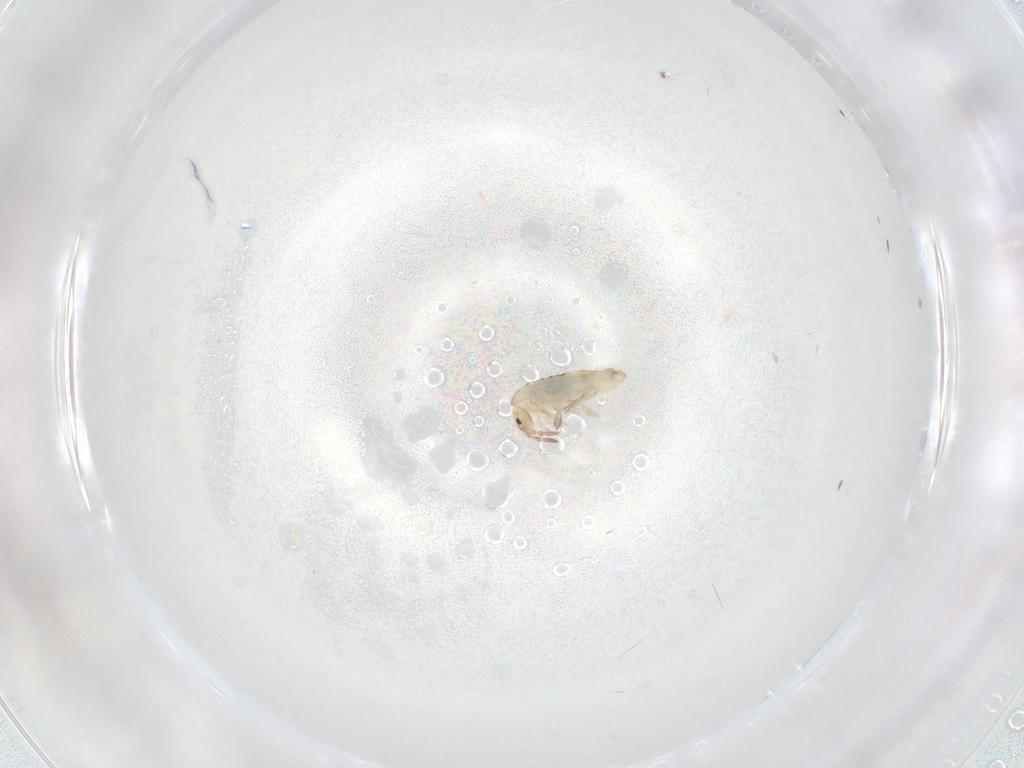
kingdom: Animalia
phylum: Arthropoda
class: Collembola
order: Entomobryomorpha
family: Entomobryidae
